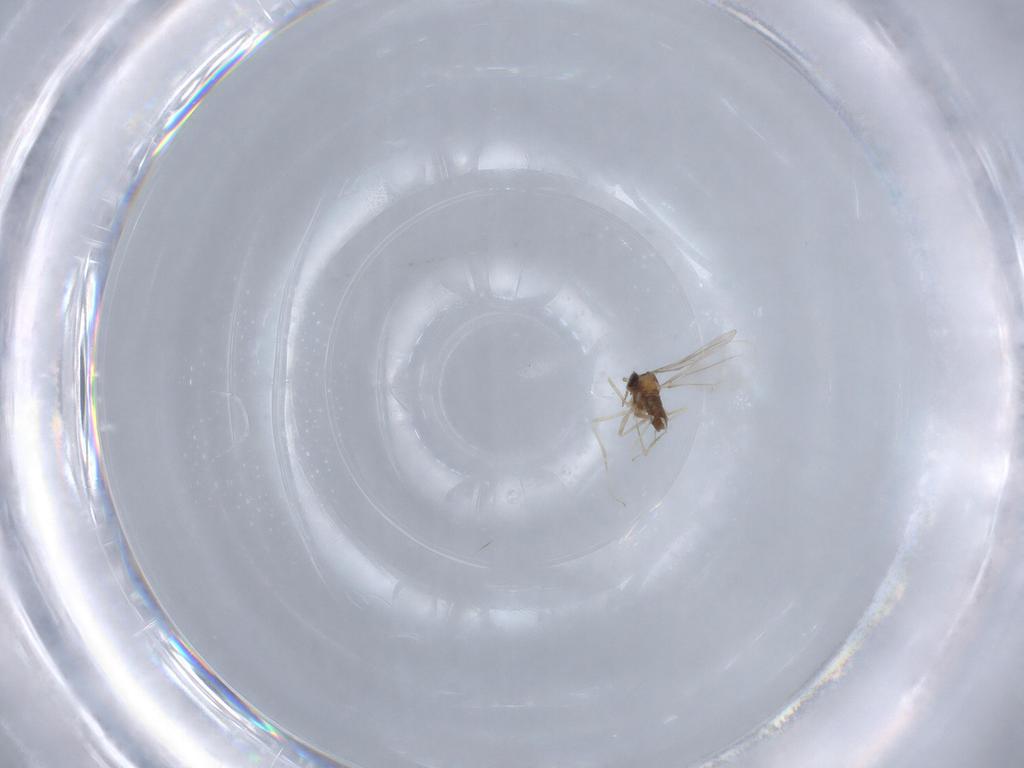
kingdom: Animalia
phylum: Arthropoda
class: Insecta
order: Diptera
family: Cecidomyiidae
